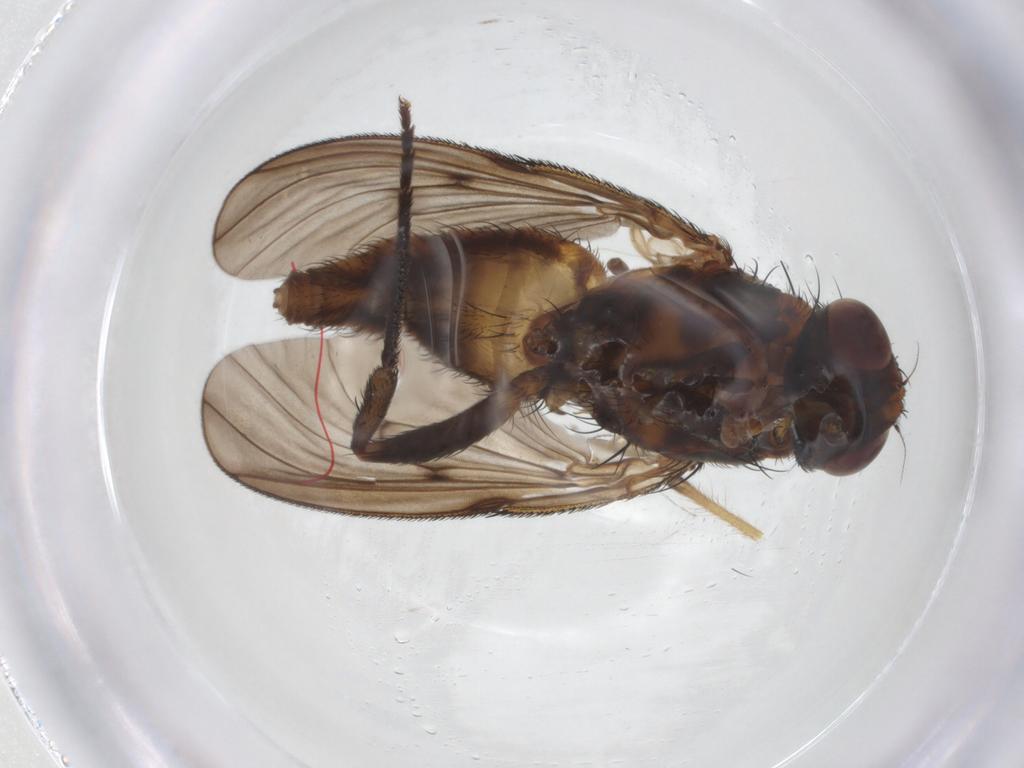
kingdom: Animalia
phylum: Arthropoda
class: Insecta
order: Diptera
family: Muscidae
